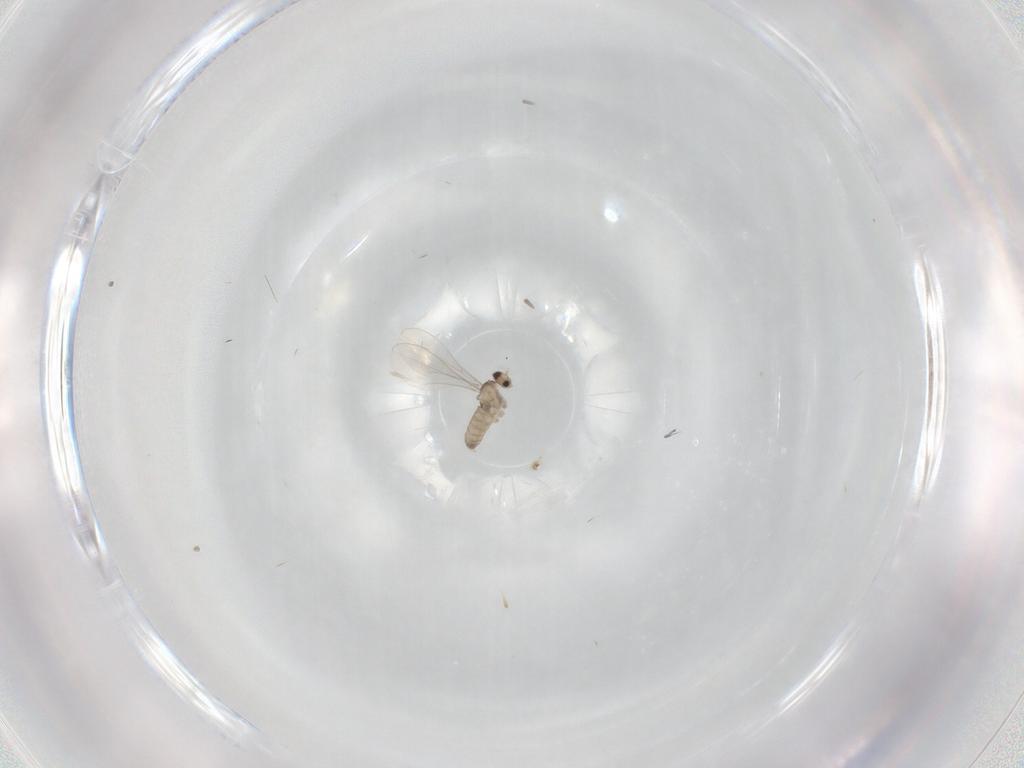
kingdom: Animalia
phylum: Arthropoda
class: Insecta
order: Diptera
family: Cecidomyiidae
